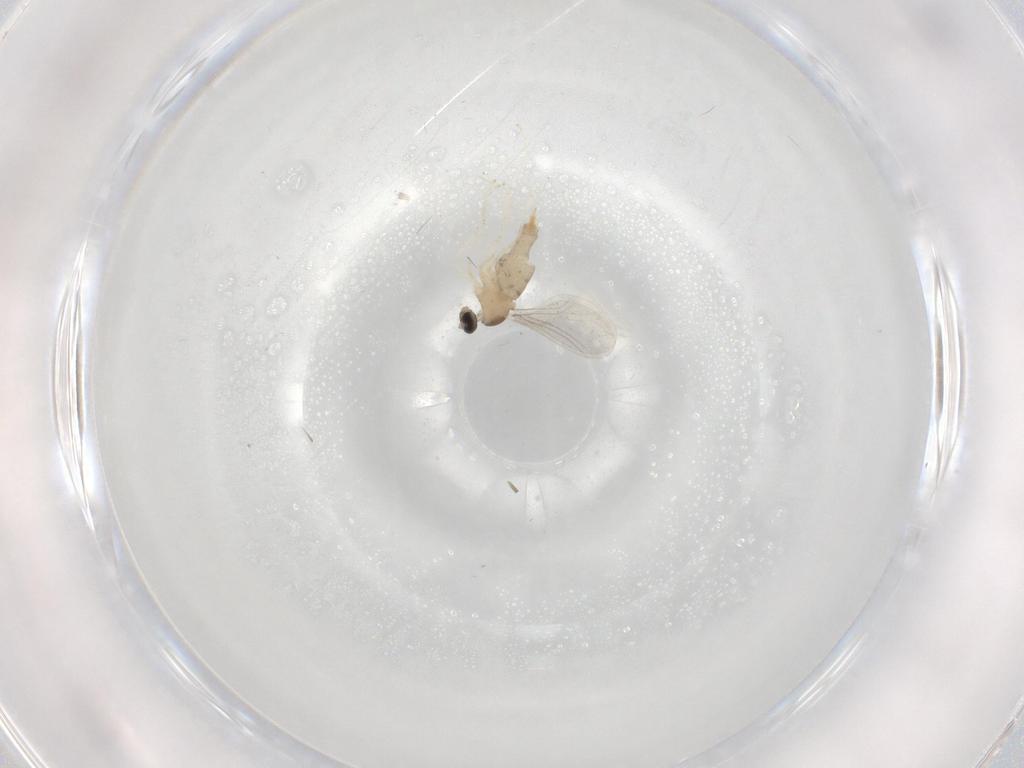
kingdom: Animalia
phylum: Arthropoda
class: Insecta
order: Diptera
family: Cecidomyiidae
